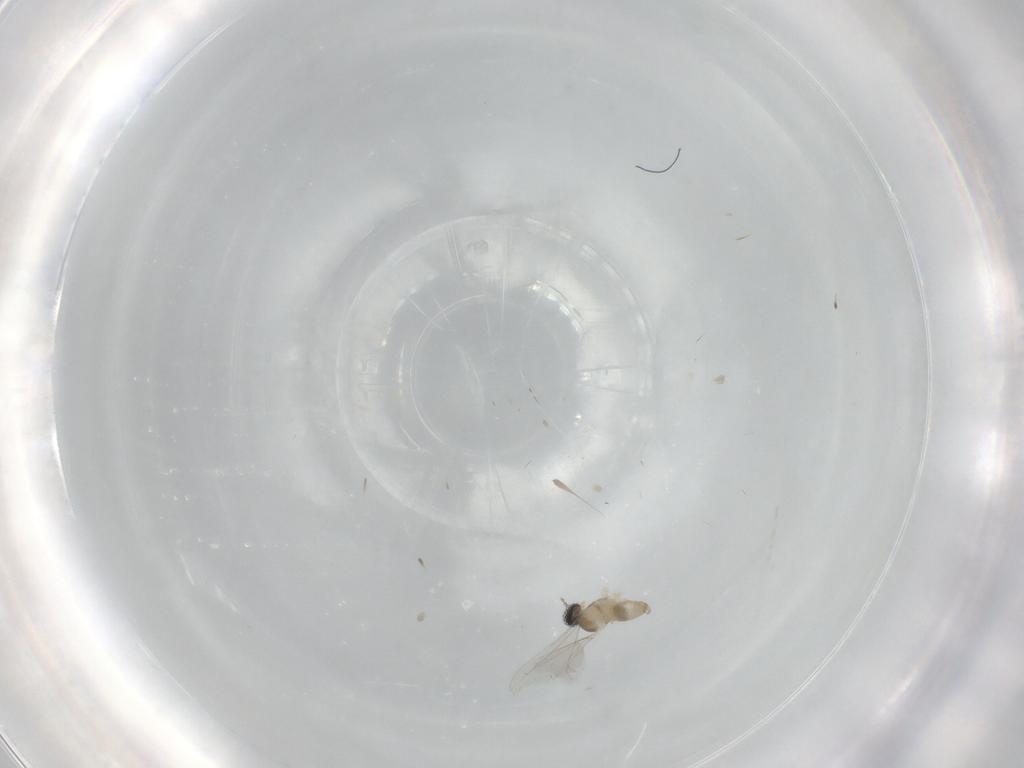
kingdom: Animalia
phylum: Arthropoda
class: Insecta
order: Diptera
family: Cecidomyiidae
